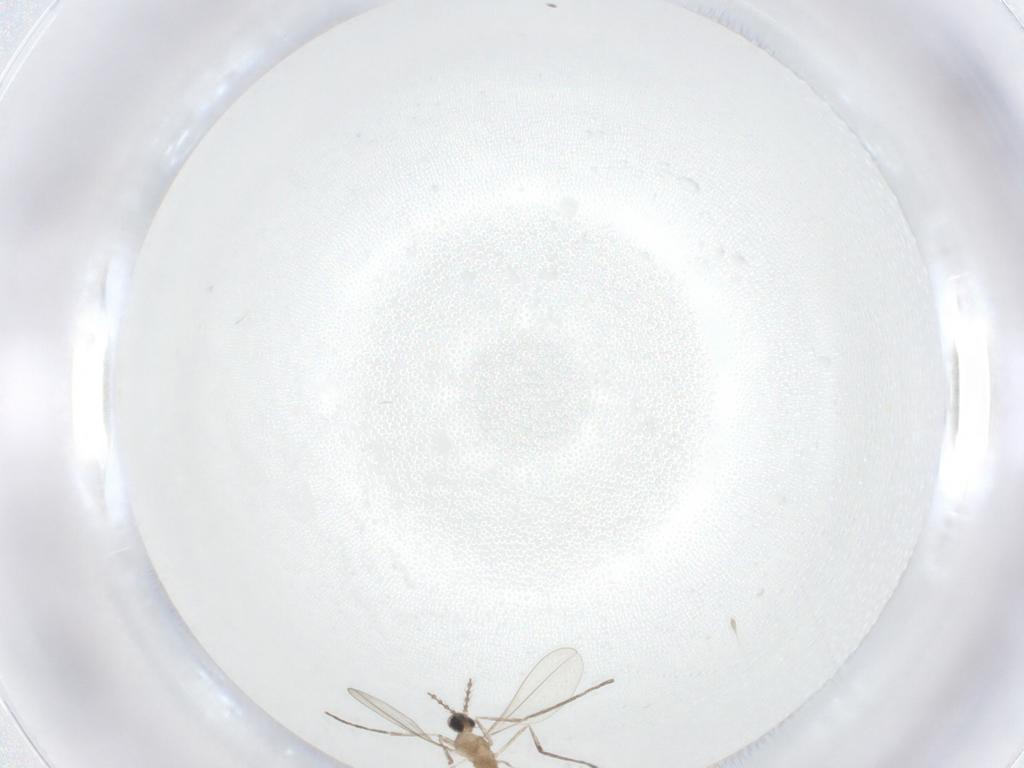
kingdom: Animalia
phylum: Arthropoda
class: Insecta
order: Diptera
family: Cecidomyiidae
